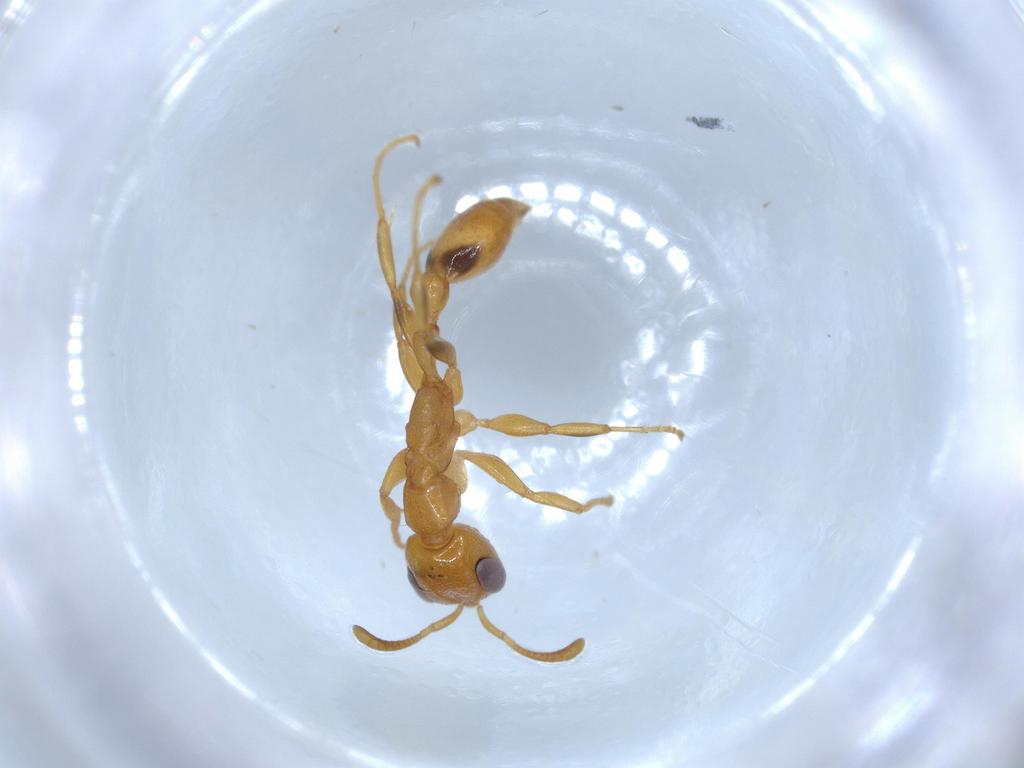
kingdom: Animalia
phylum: Arthropoda
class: Insecta
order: Hymenoptera
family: Formicidae
